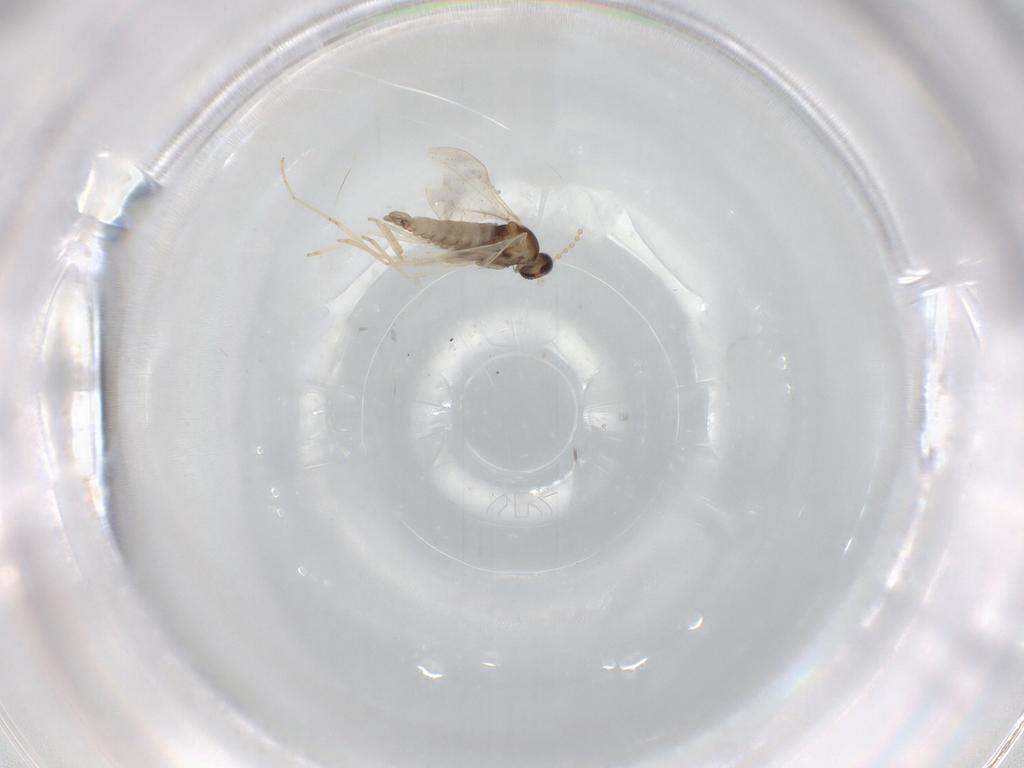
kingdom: Animalia
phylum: Arthropoda
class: Insecta
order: Diptera
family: Cecidomyiidae
